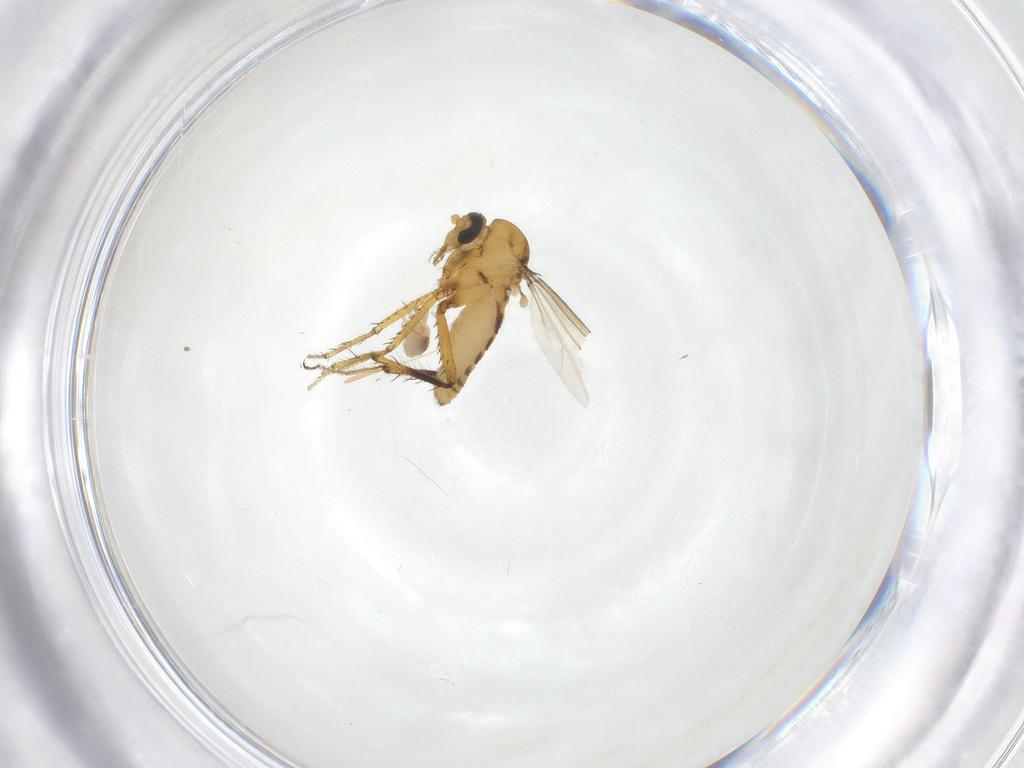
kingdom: Animalia
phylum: Arthropoda
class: Insecta
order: Diptera
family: Ceratopogonidae
